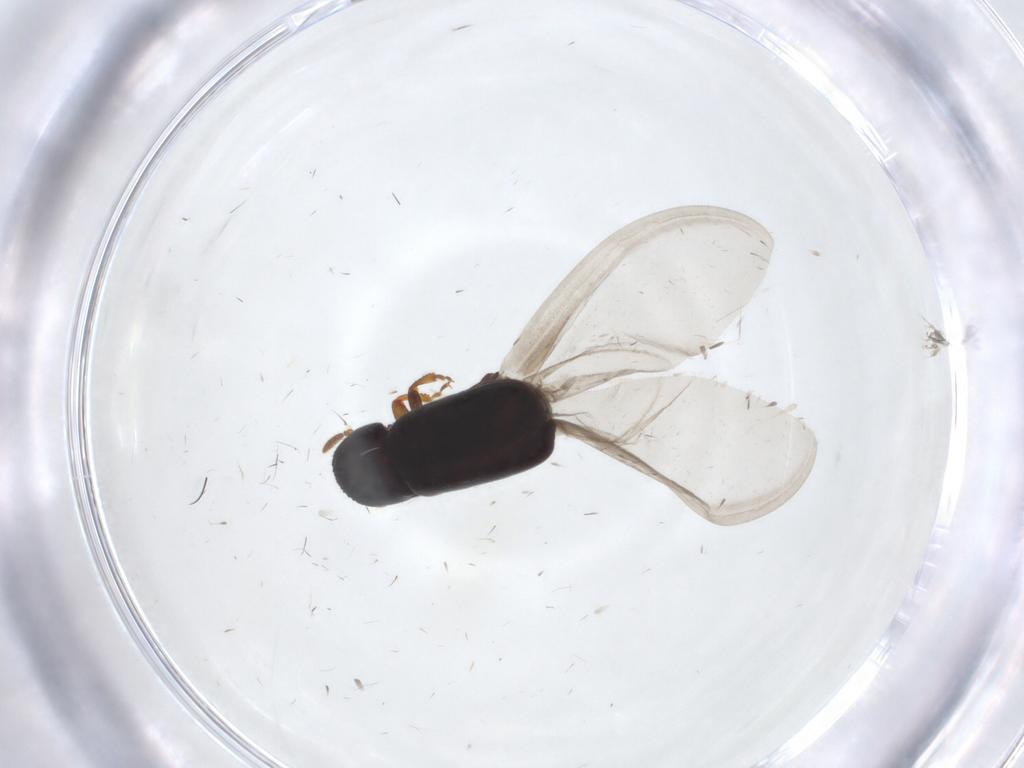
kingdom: Animalia
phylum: Arthropoda
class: Insecta
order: Coleoptera
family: Curculionidae
